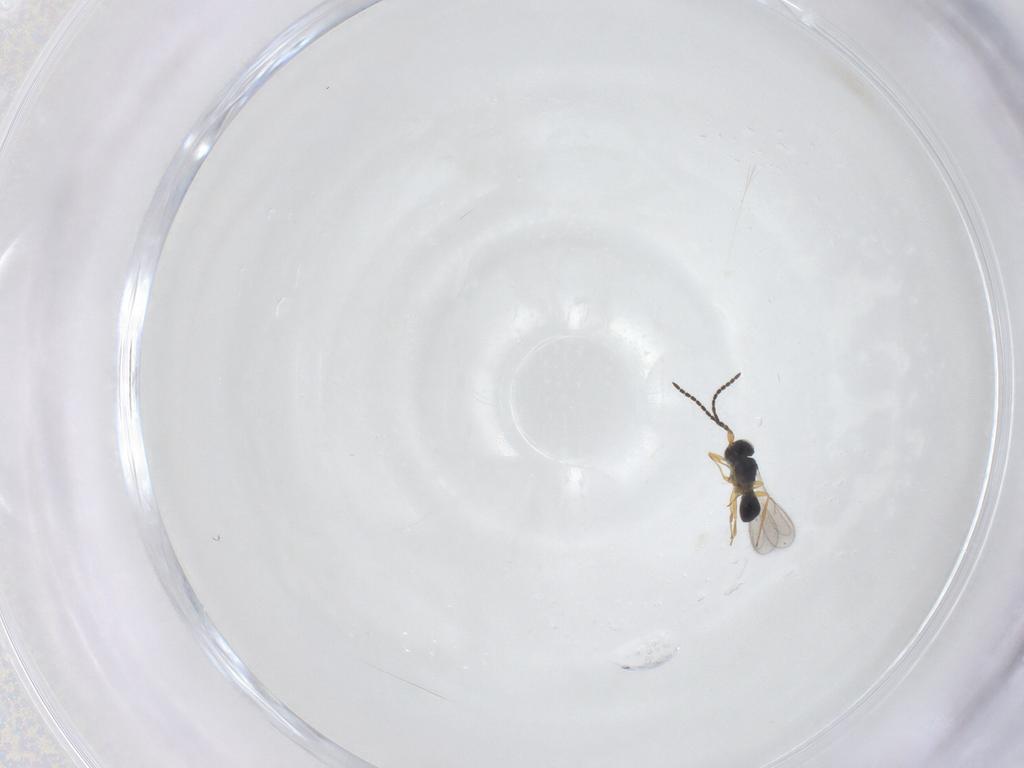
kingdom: Animalia
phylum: Arthropoda
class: Insecta
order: Hymenoptera
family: Scelionidae
